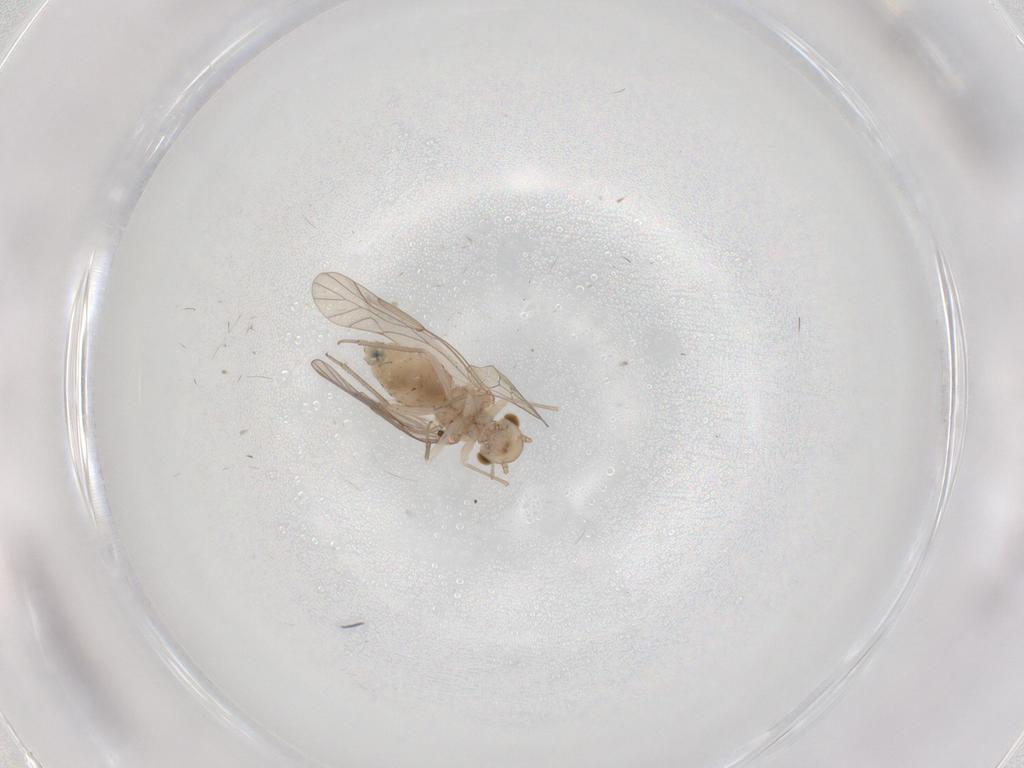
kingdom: Animalia
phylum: Arthropoda
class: Insecta
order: Psocodea
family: Lachesillidae
